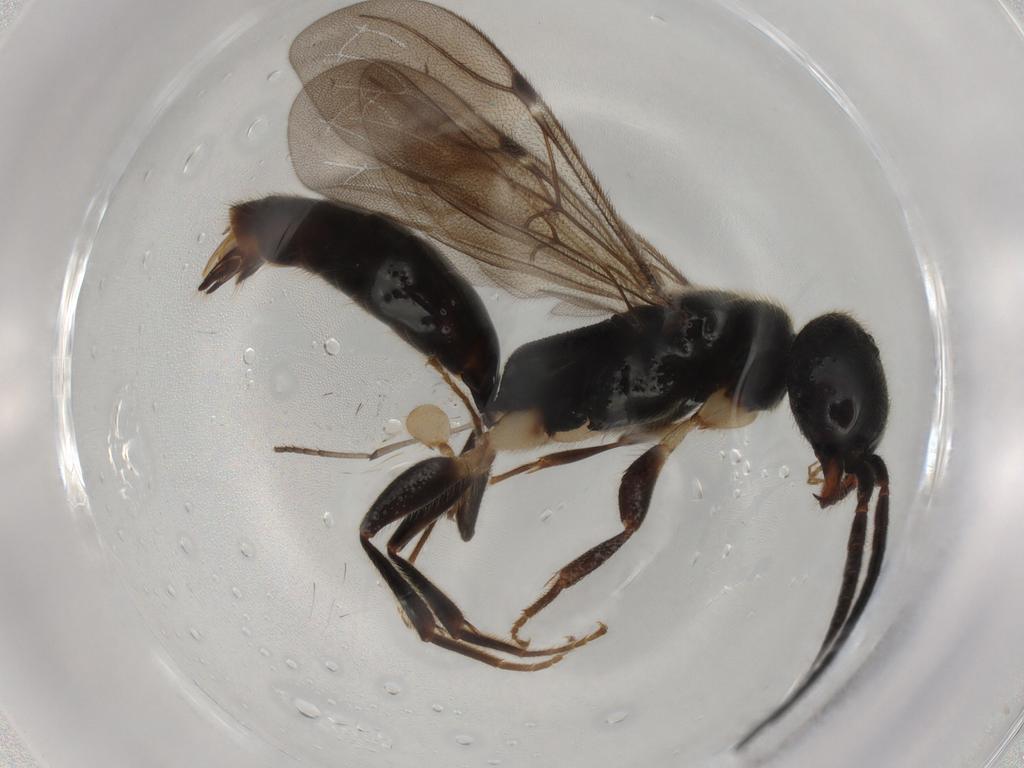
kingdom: Animalia
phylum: Arthropoda
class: Insecta
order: Hymenoptera
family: Bethylidae
